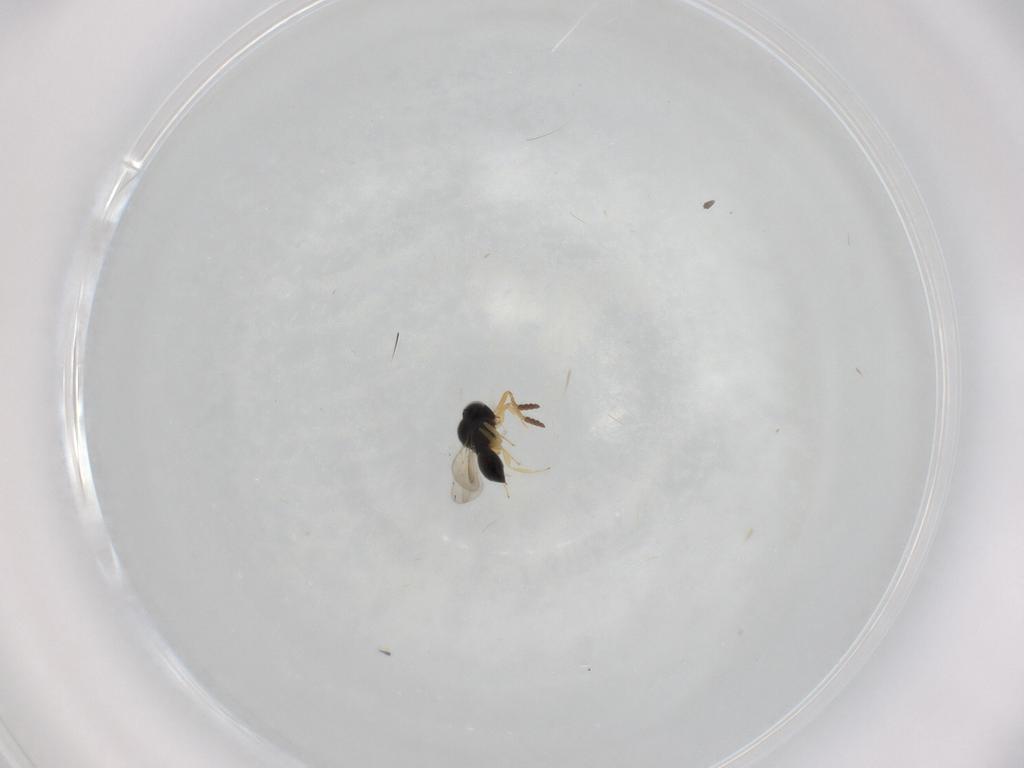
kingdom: Animalia
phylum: Arthropoda
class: Insecta
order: Hymenoptera
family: Scelionidae
